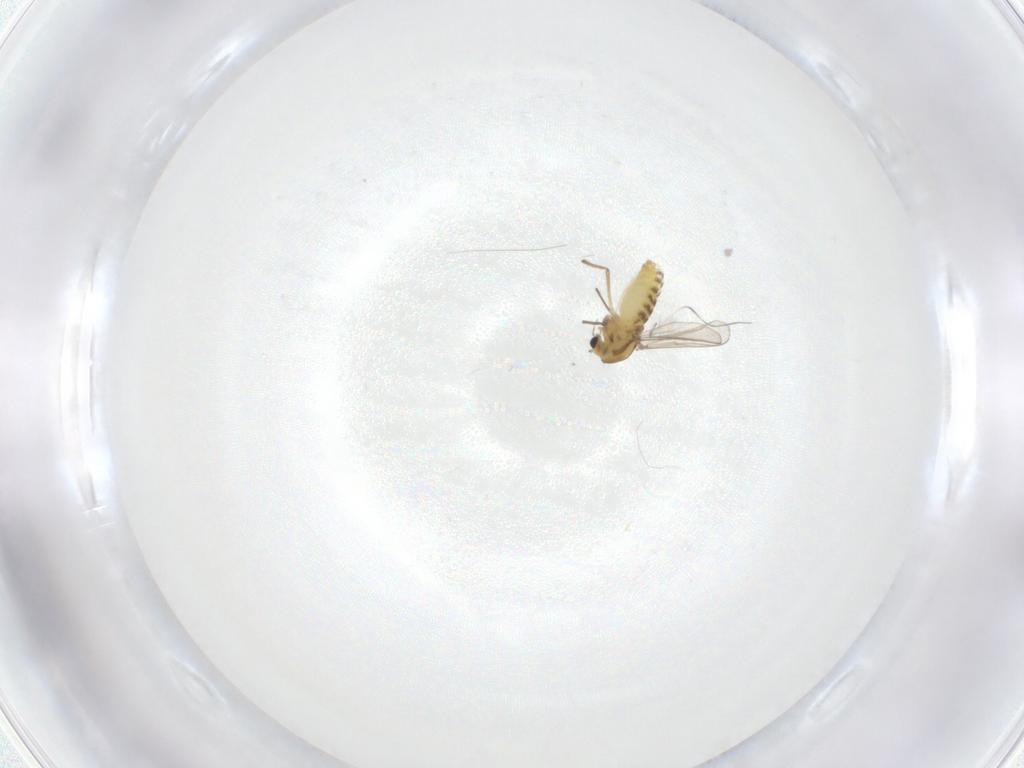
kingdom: Animalia
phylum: Arthropoda
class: Insecta
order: Diptera
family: Chironomidae
